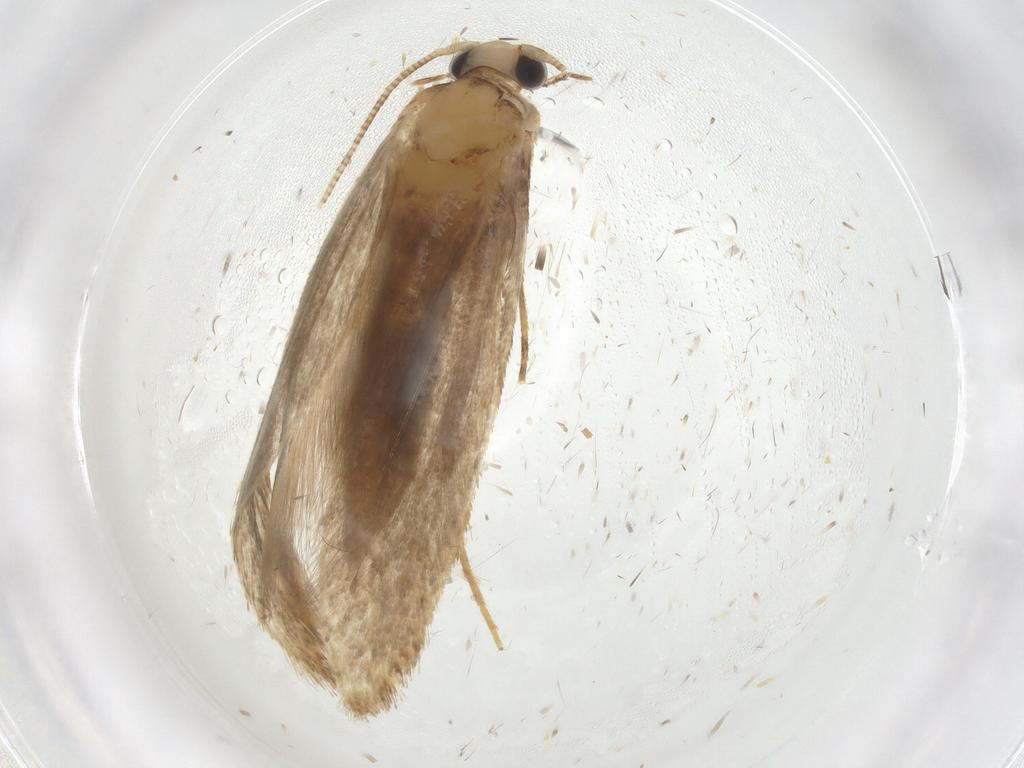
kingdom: Animalia
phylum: Arthropoda
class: Insecta
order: Lepidoptera
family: Tineidae
